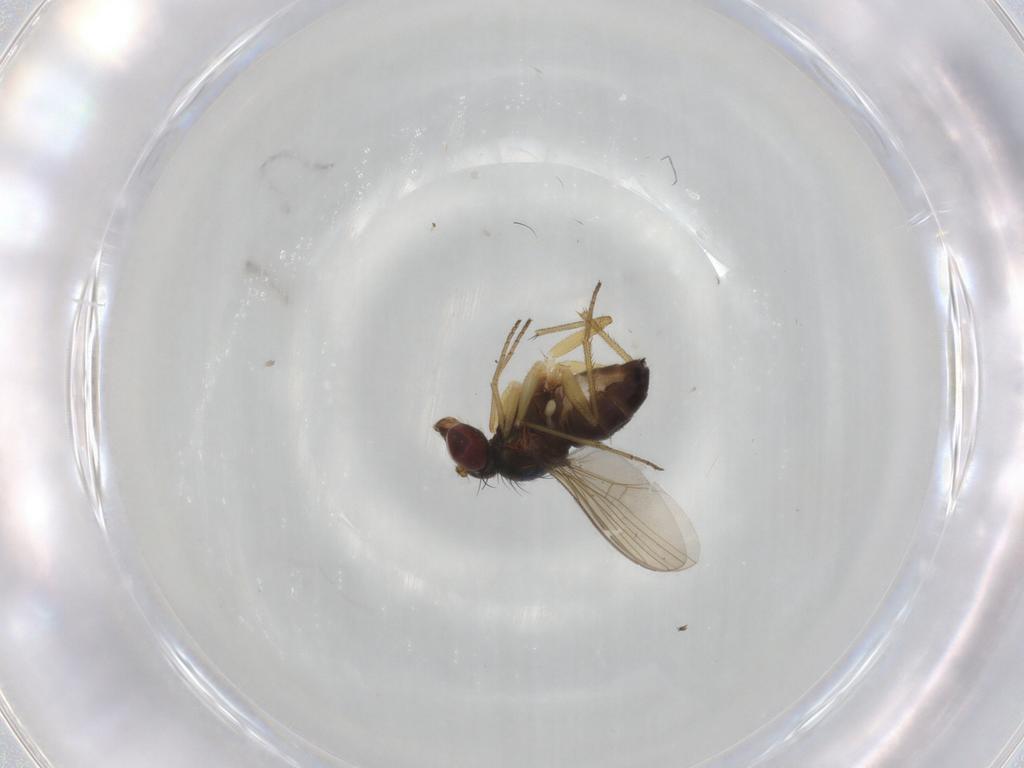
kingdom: Animalia
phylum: Arthropoda
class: Insecta
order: Diptera
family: Dolichopodidae
